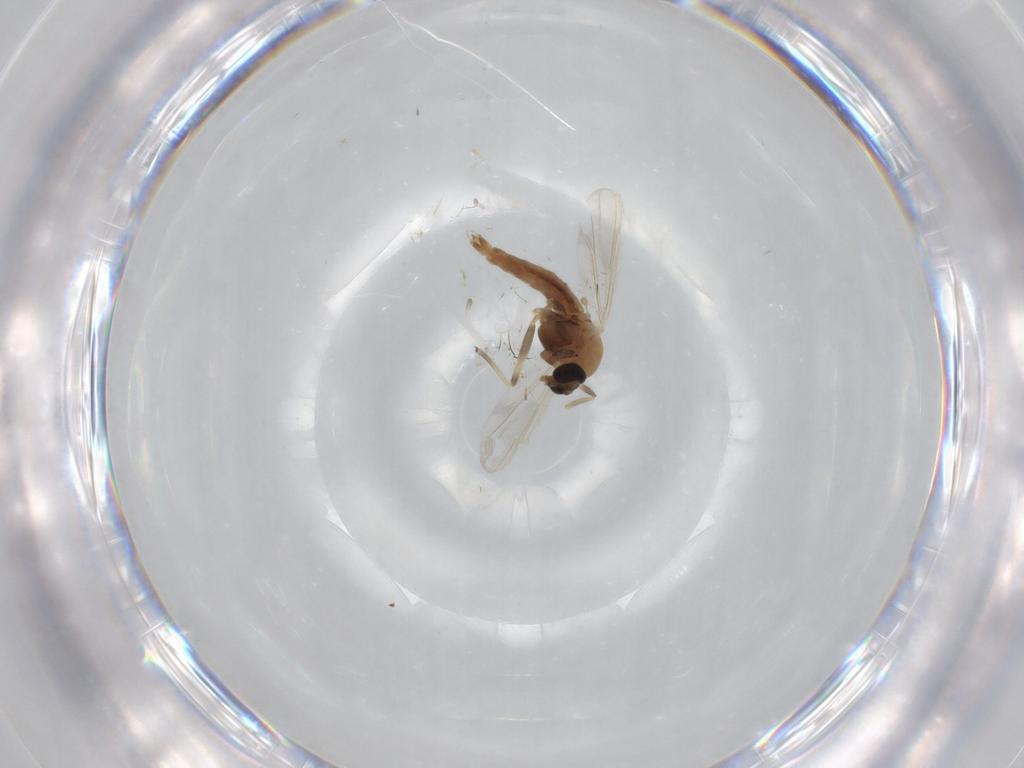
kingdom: Animalia
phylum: Arthropoda
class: Insecta
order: Diptera
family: Chironomidae
